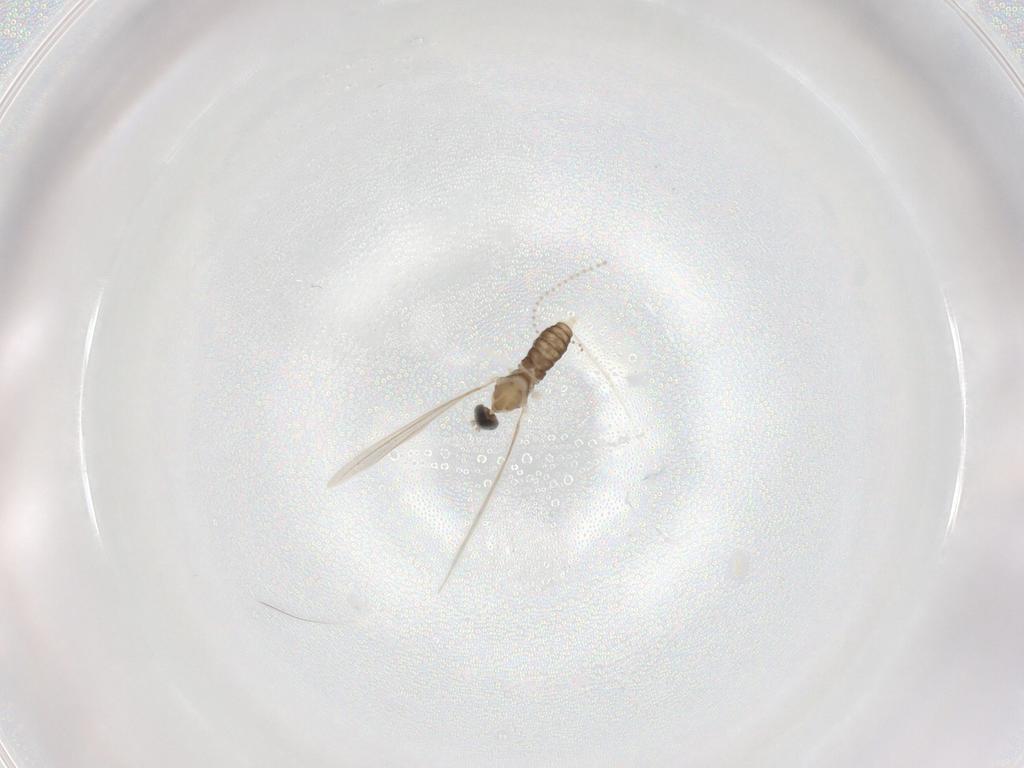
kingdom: Animalia
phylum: Arthropoda
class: Insecta
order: Diptera
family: Cecidomyiidae
